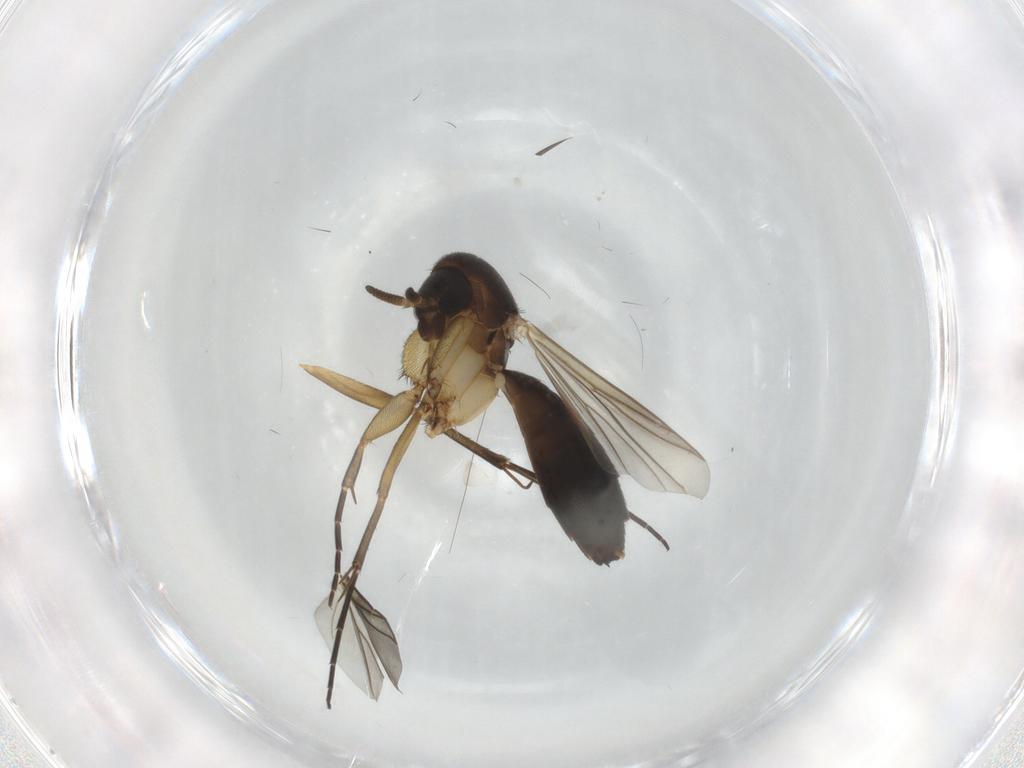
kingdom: Animalia
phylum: Arthropoda
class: Insecta
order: Diptera
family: Mycetophilidae
